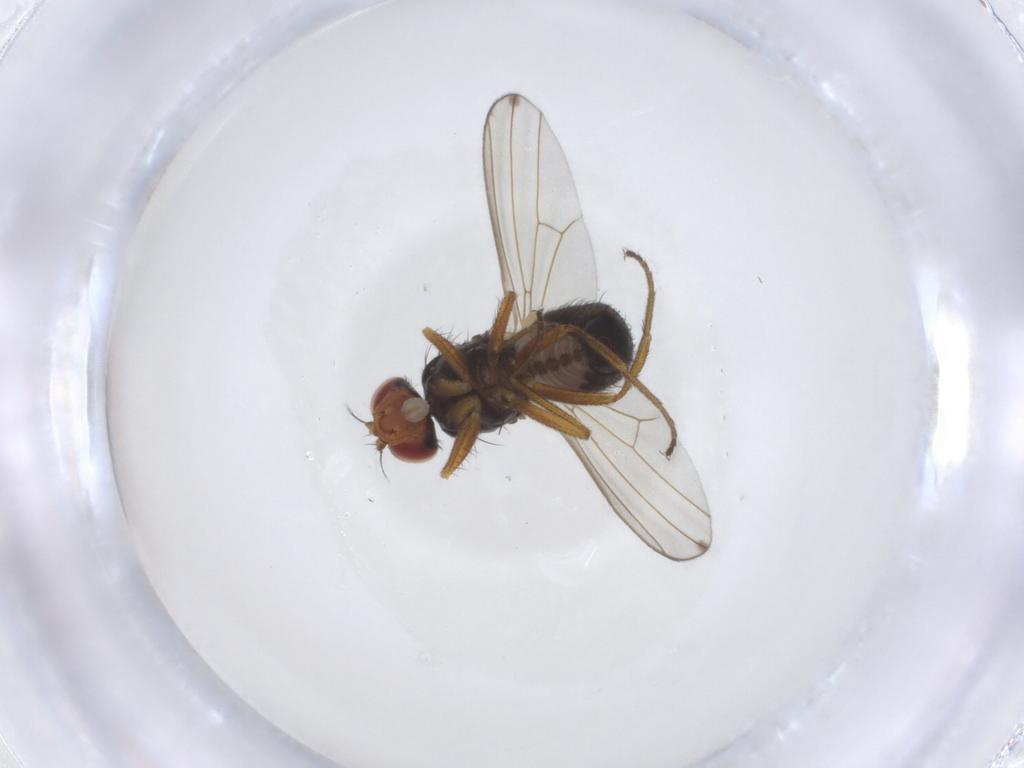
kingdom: Animalia
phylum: Arthropoda
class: Insecta
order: Diptera
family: Drosophilidae
